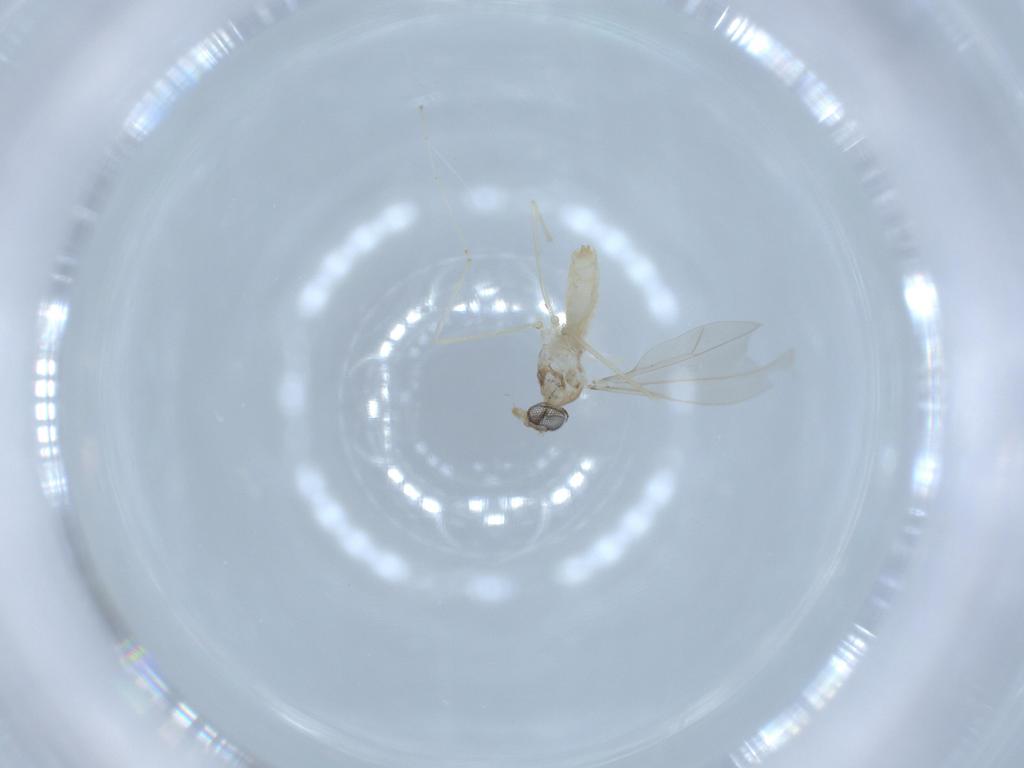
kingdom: Animalia
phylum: Arthropoda
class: Insecta
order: Diptera
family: Cecidomyiidae
